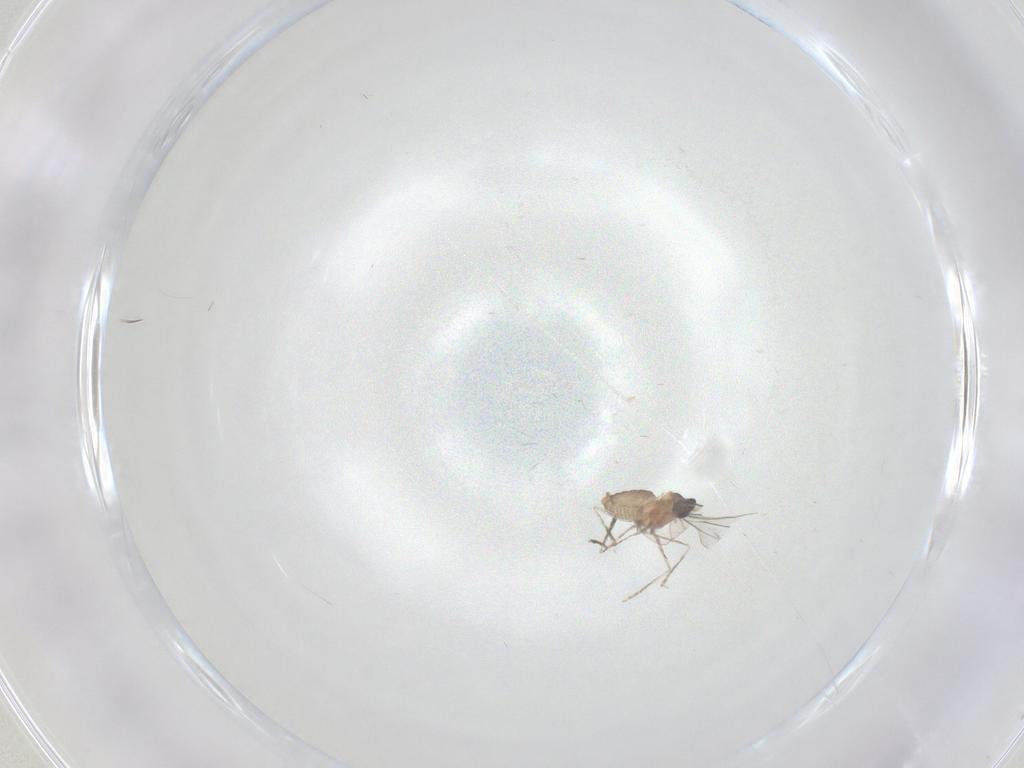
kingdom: Animalia
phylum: Arthropoda
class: Insecta
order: Diptera
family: Cecidomyiidae
